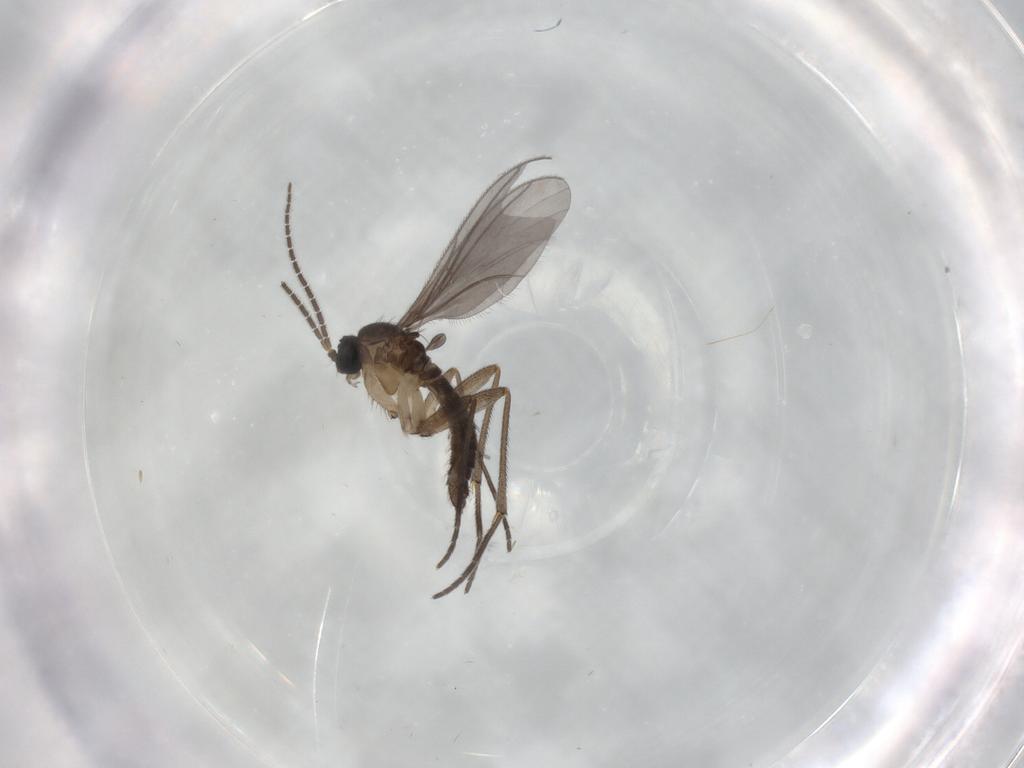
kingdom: Animalia
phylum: Arthropoda
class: Insecta
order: Diptera
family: Sciaridae
